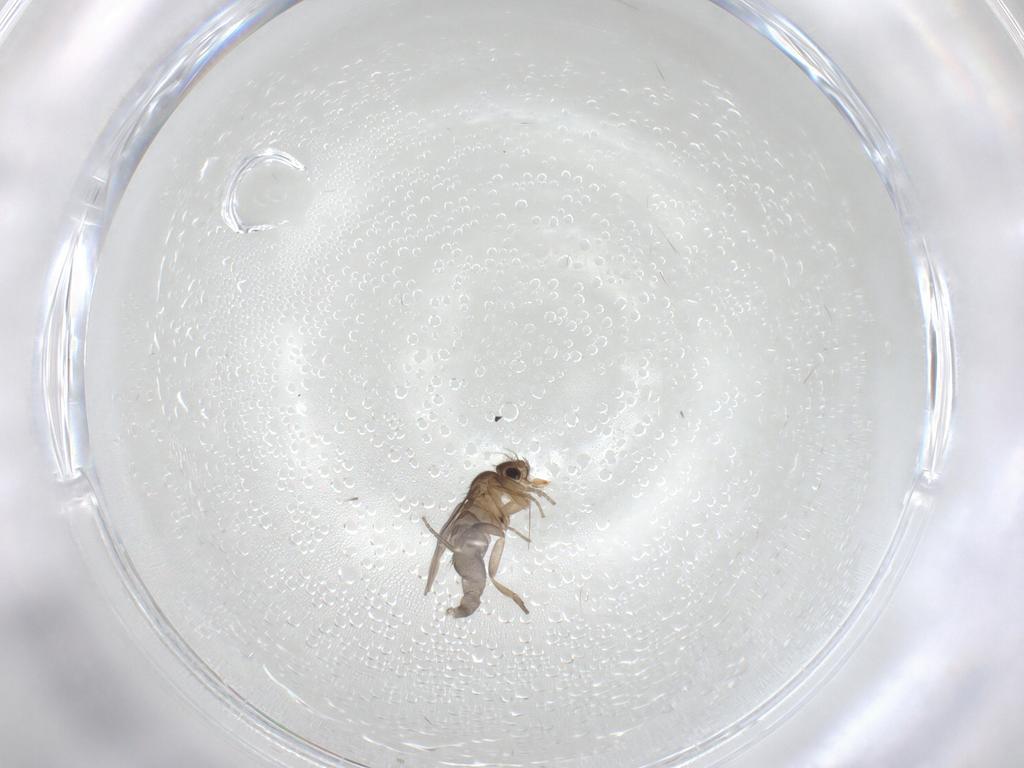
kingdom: Animalia
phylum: Arthropoda
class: Insecta
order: Diptera
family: Phoridae
